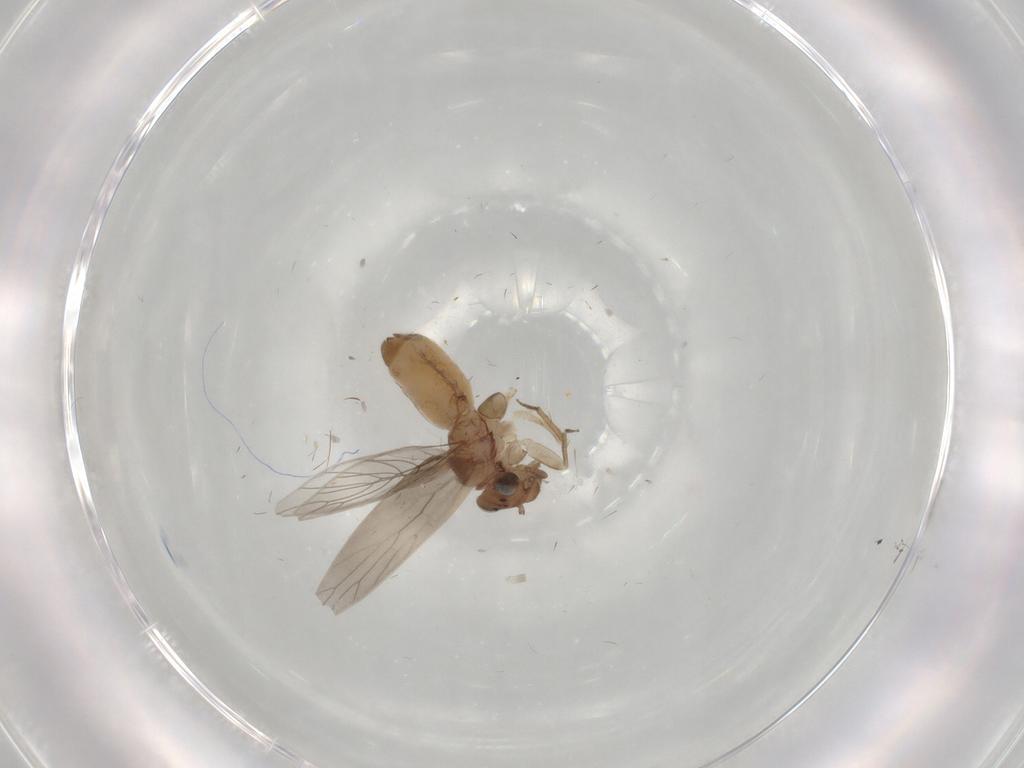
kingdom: Animalia
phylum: Arthropoda
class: Insecta
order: Psocodea
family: Lepidopsocidae
